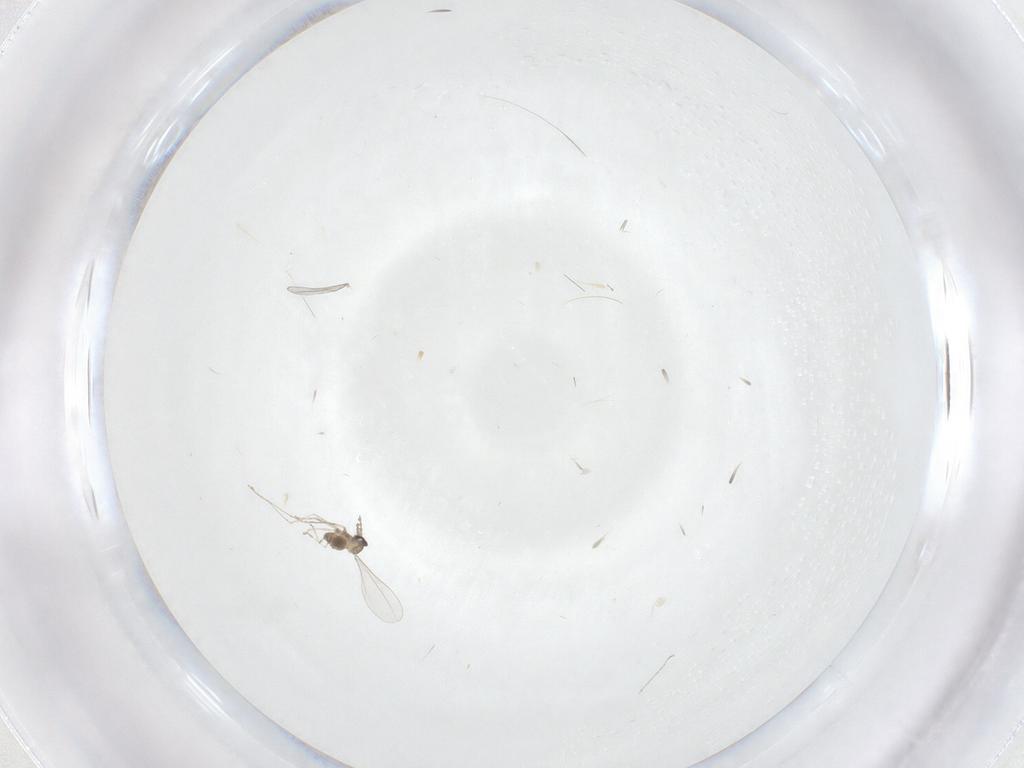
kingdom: Animalia
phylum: Arthropoda
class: Insecta
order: Diptera
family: Cecidomyiidae
